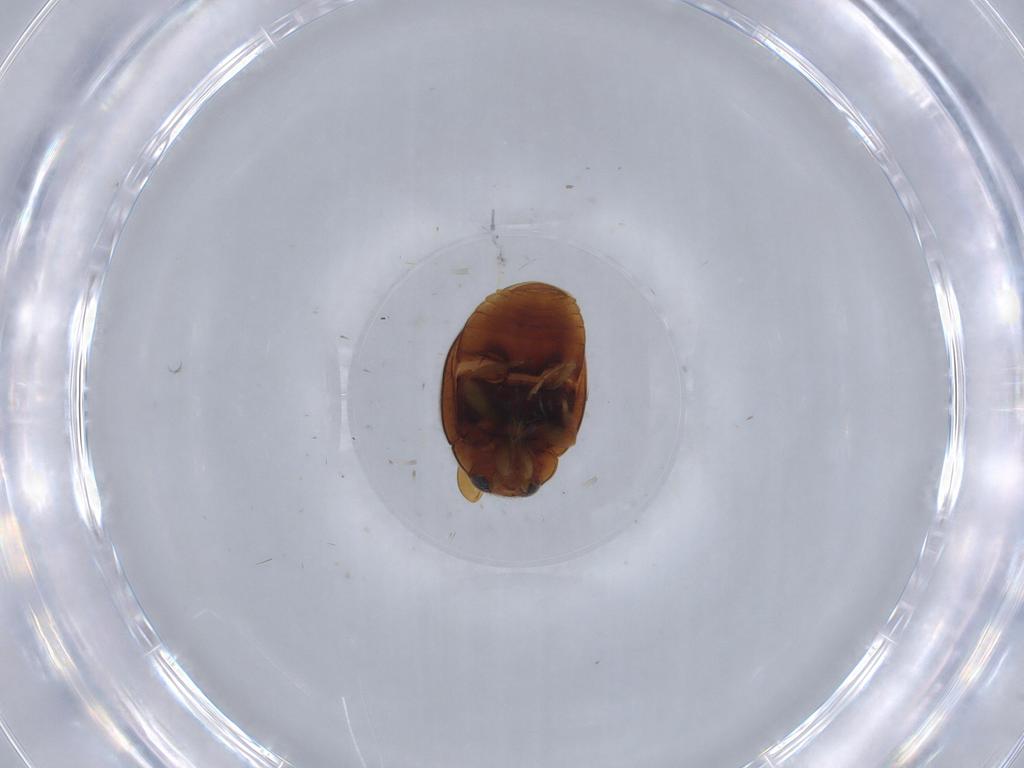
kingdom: Animalia
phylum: Arthropoda
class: Insecta
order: Coleoptera
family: Coccinellidae
